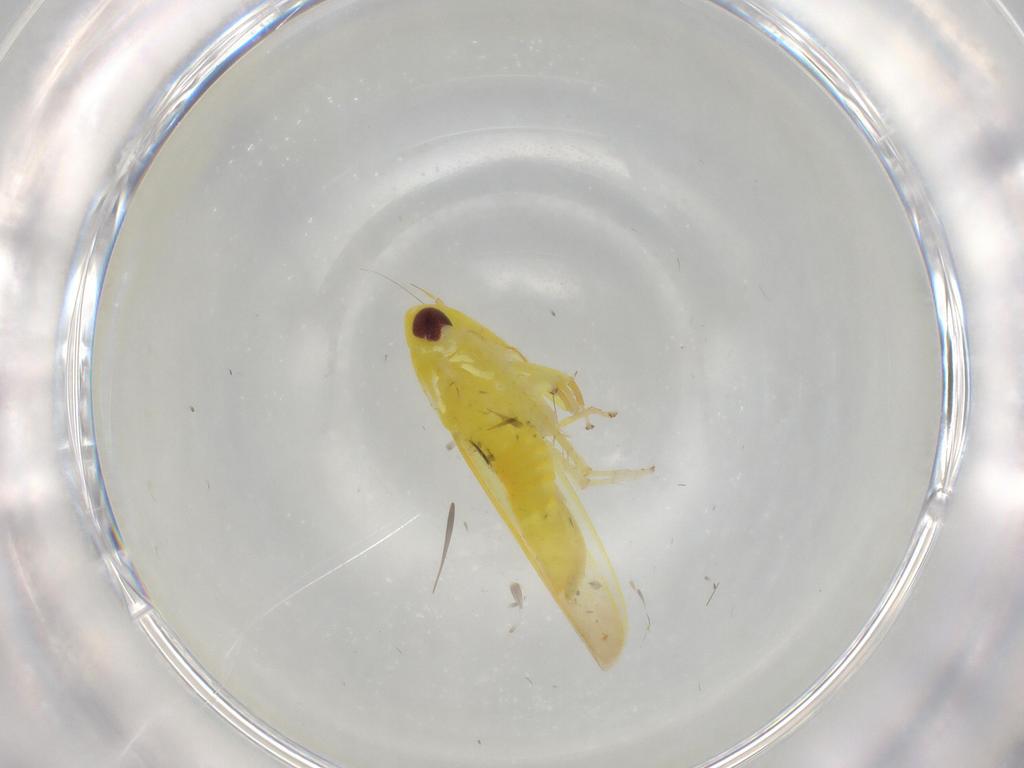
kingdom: Animalia
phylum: Arthropoda
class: Insecta
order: Hemiptera
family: Cicadellidae
